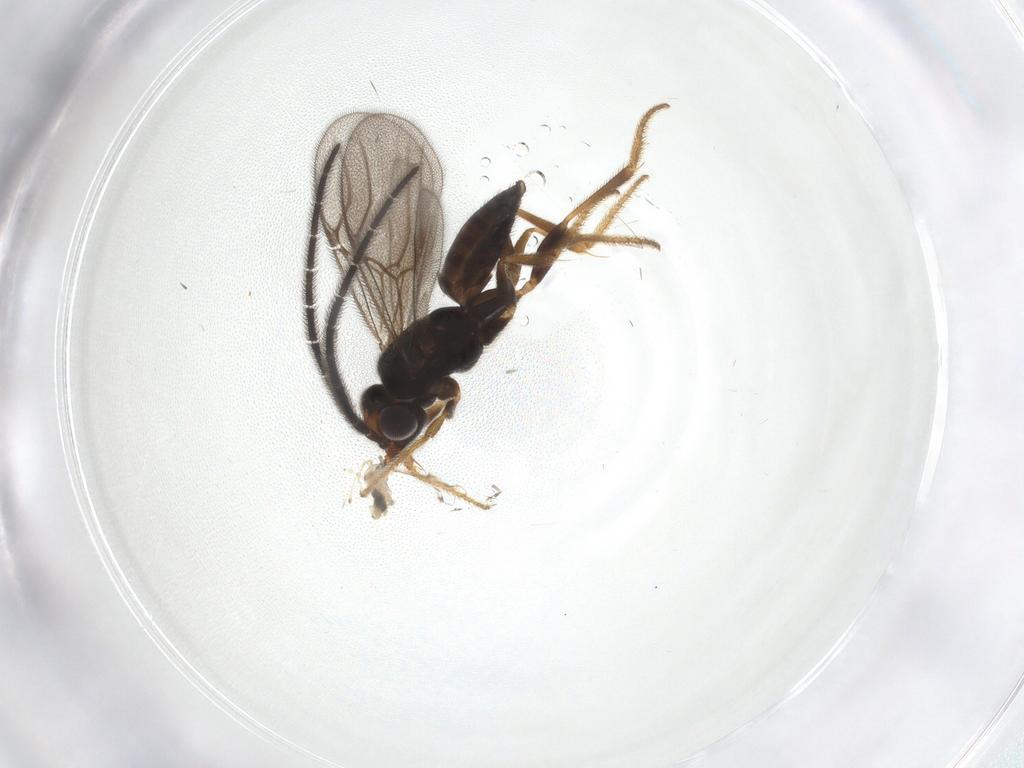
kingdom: Animalia
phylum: Arthropoda
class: Insecta
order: Hymenoptera
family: Dryinidae
